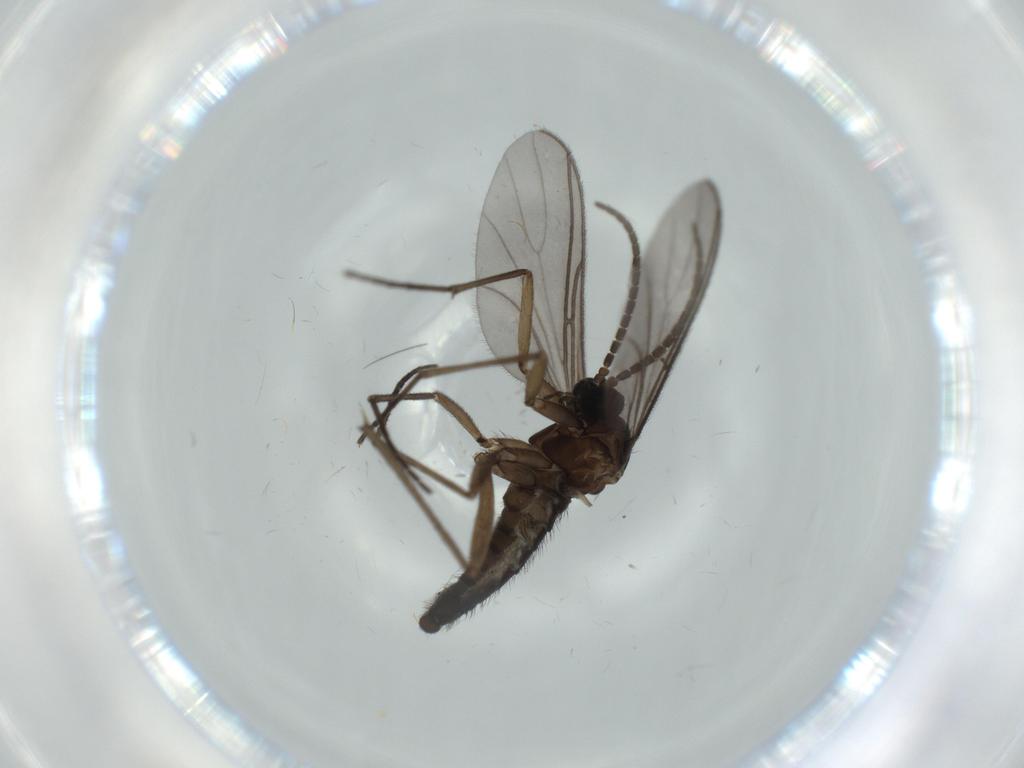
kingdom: Animalia
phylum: Arthropoda
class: Insecta
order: Diptera
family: Sciaridae
